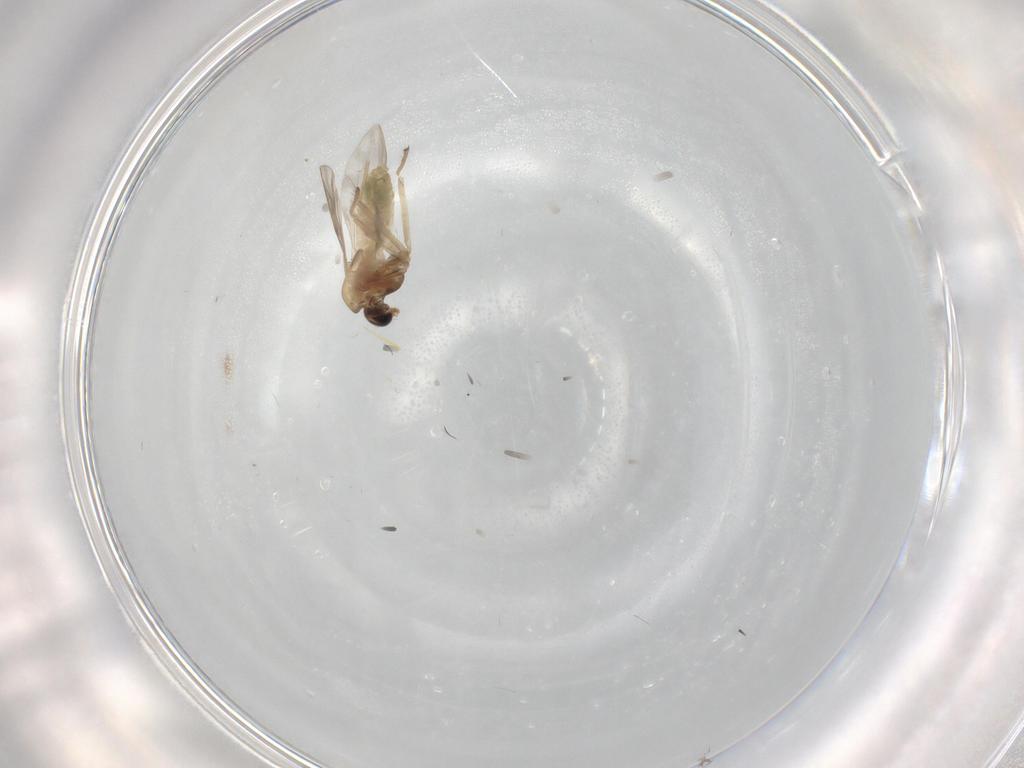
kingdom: Animalia
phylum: Arthropoda
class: Insecta
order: Diptera
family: Chironomidae
